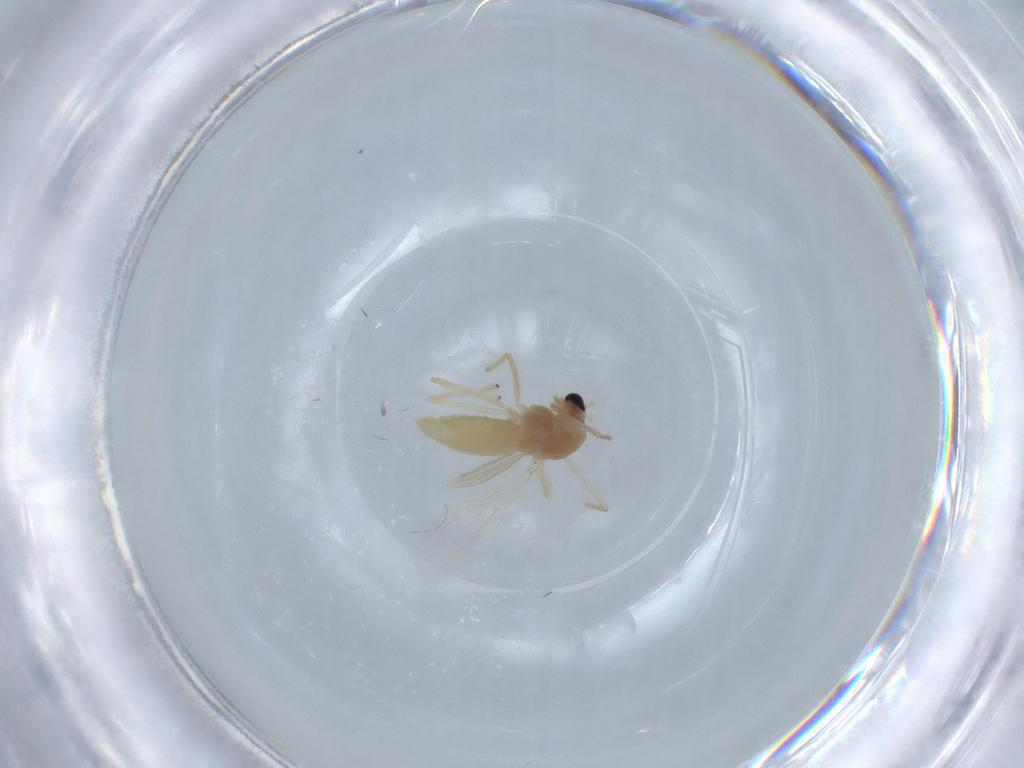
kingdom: Animalia
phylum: Arthropoda
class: Insecta
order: Diptera
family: Chironomidae
